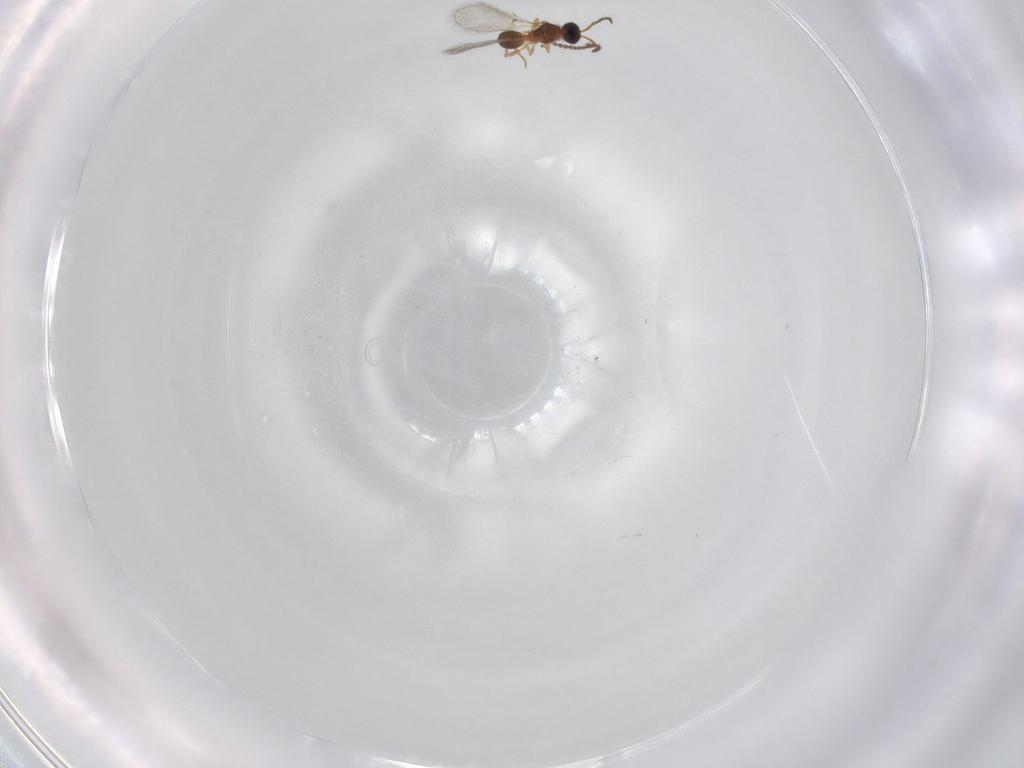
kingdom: Animalia
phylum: Arthropoda
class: Insecta
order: Hymenoptera
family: Diapriidae
